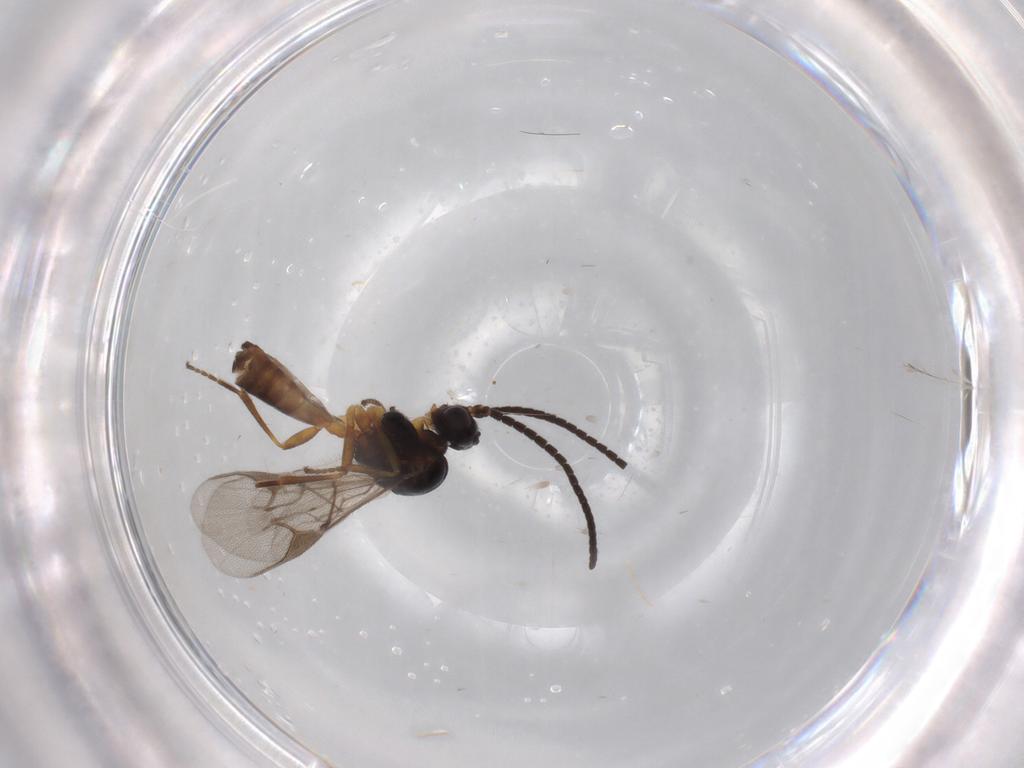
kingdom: Animalia
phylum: Arthropoda
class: Insecta
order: Hymenoptera
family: Braconidae
